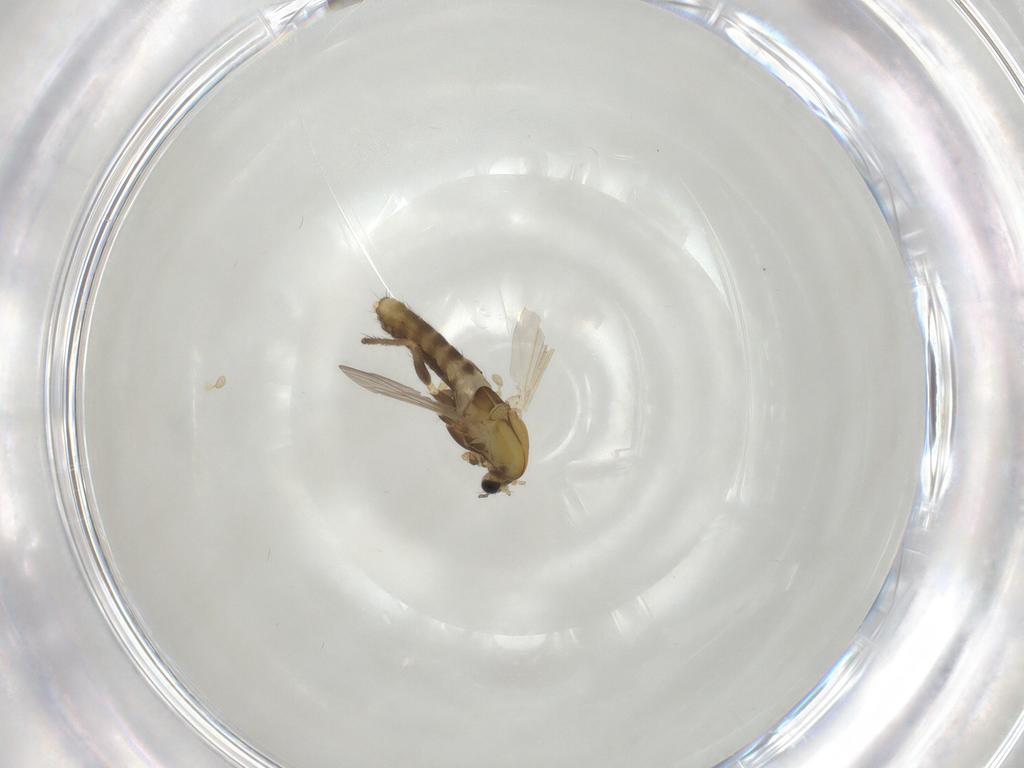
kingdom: Animalia
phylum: Arthropoda
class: Insecta
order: Diptera
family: Chironomidae
